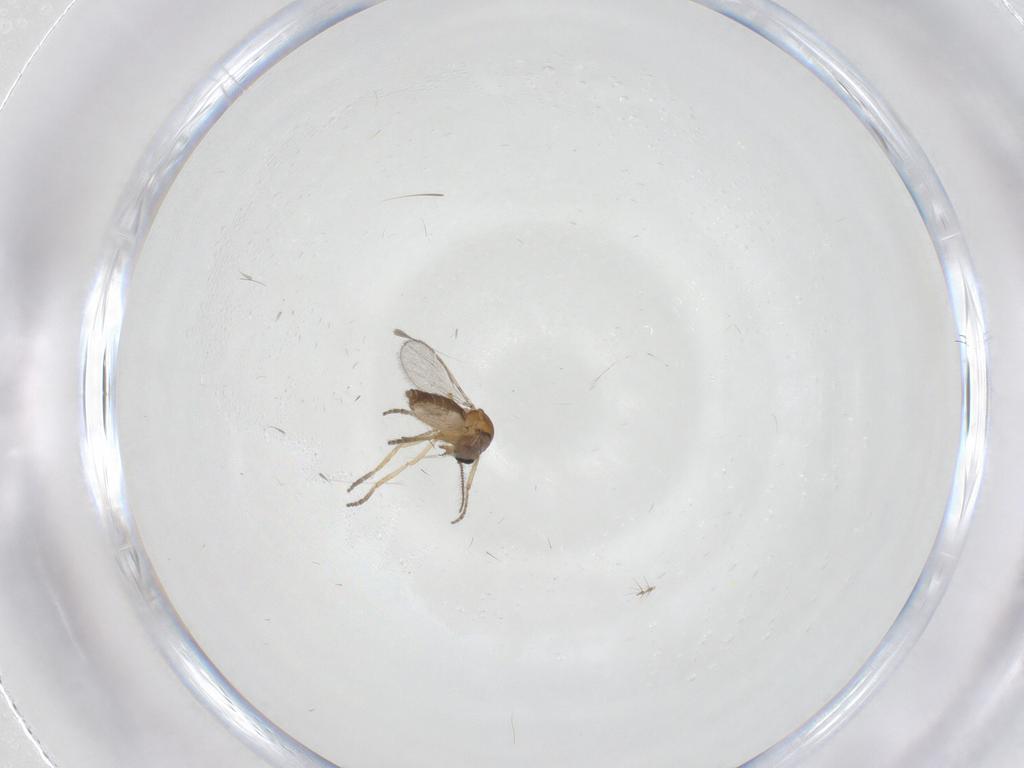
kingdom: Animalia
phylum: Arthropoda
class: Insecta
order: Diptera
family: Ceratopogonidae
